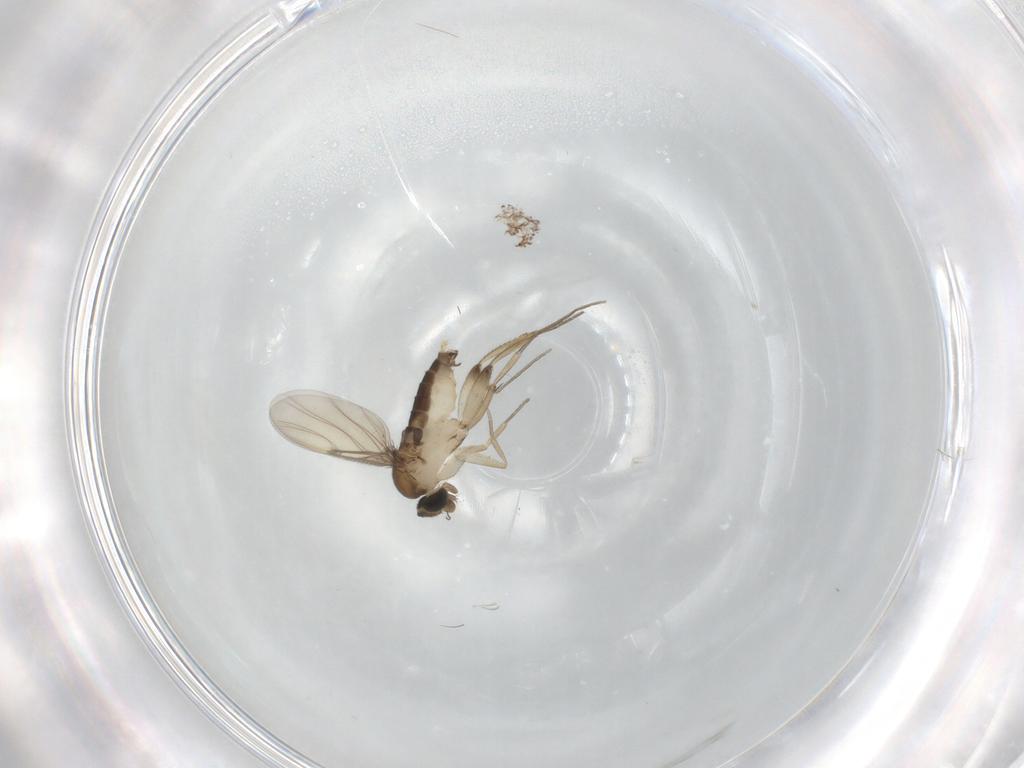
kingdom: Animalia
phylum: Arthropoda
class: Insecta
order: Diptera
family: Phoridae
